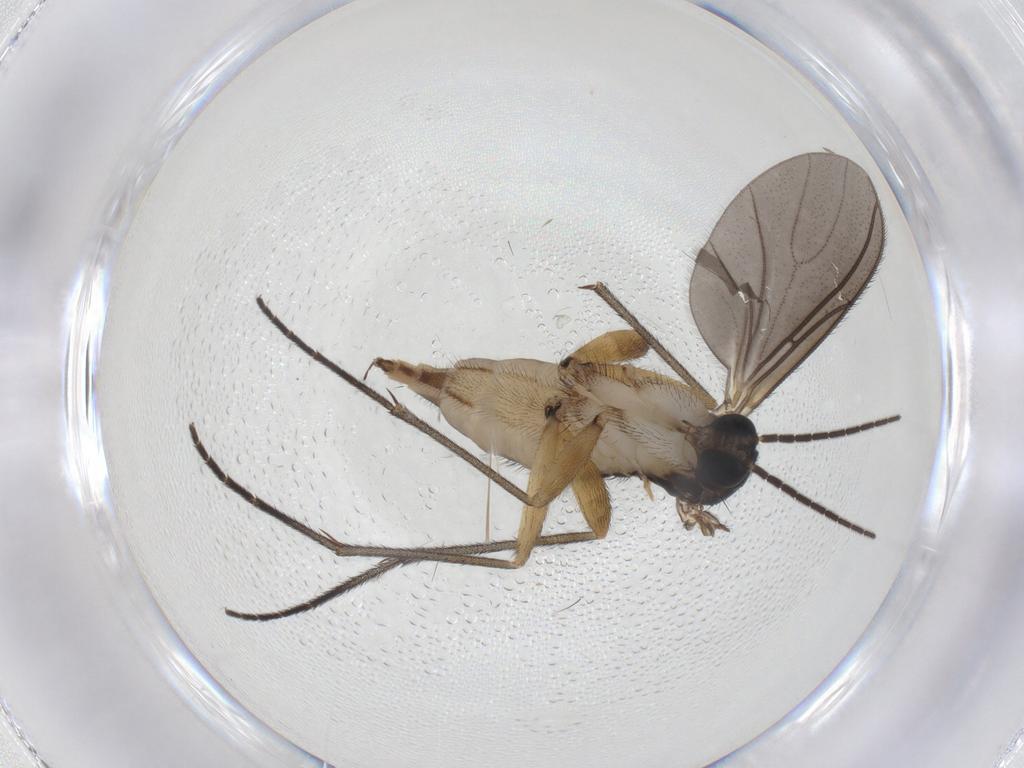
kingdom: Animalia
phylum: Arthropoda
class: Insecta
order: Diptera
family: Sciaridae
